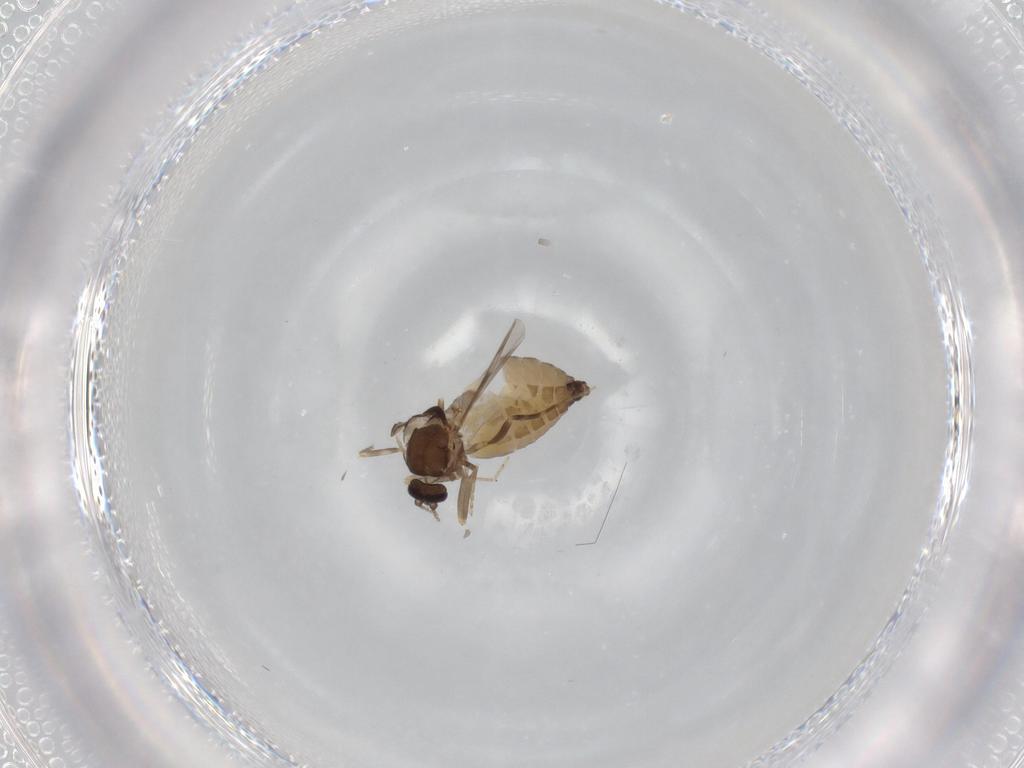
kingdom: Animalia
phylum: Arthropoda
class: Insecta
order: Diptera
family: Ceratopogonidae
